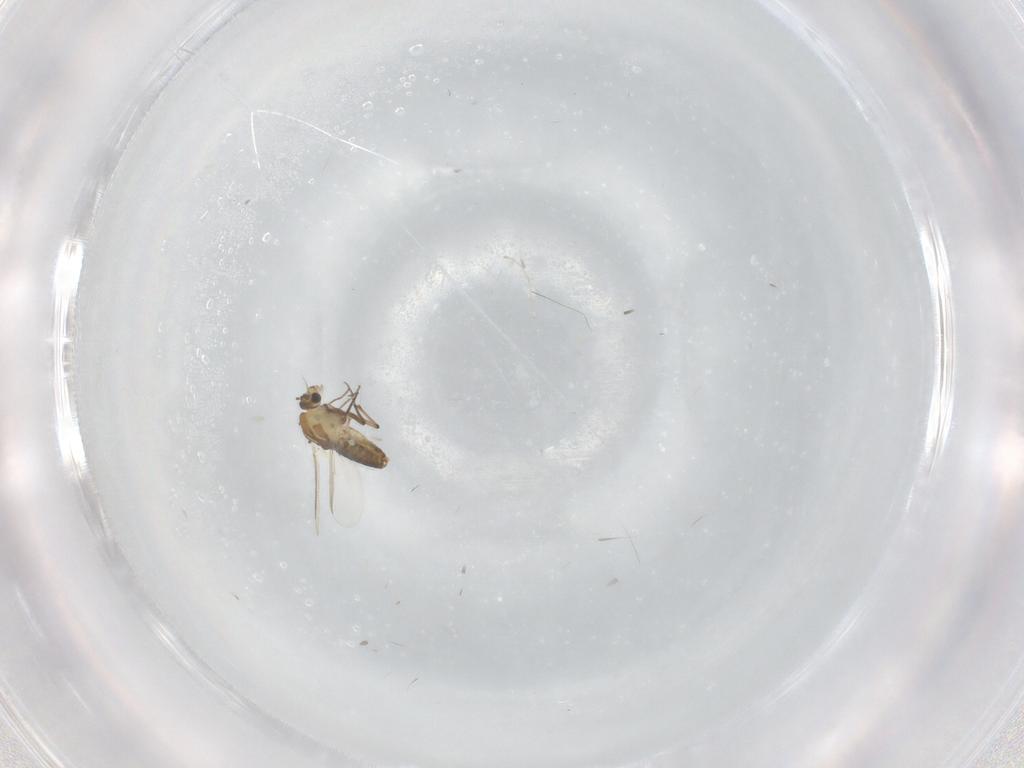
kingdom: Animalia
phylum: Arthropoda
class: Insecta
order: Diptera
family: Chironomidae
